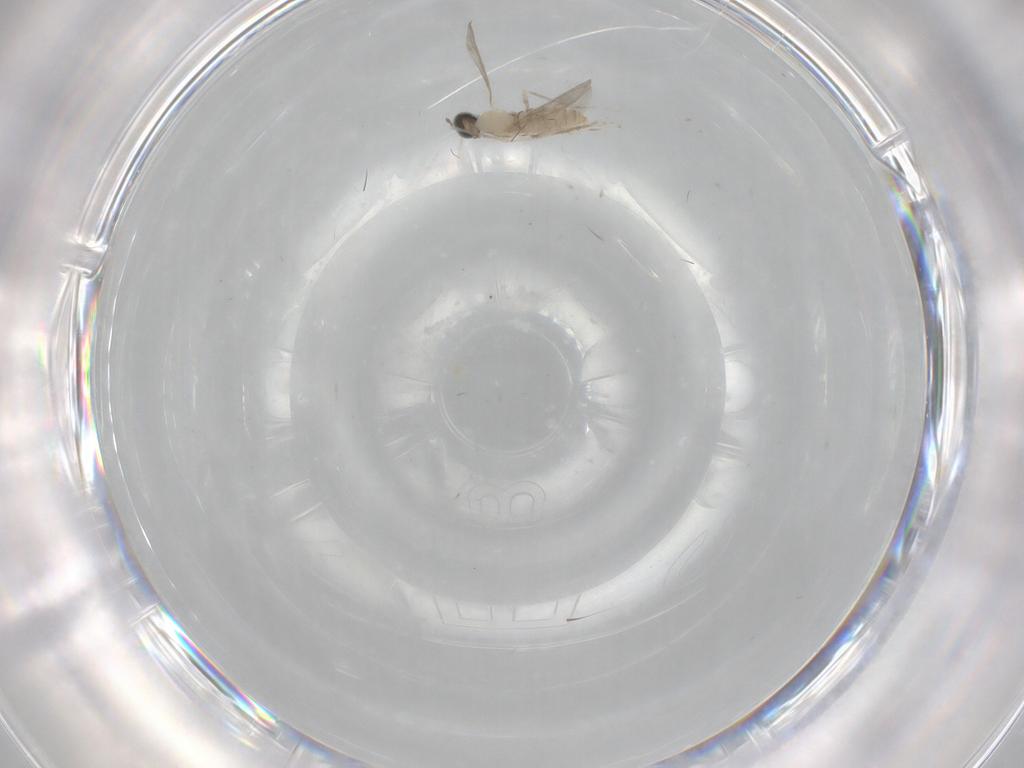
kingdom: Animalia
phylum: Arthropoda
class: Insecta
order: Diptera
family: Cecidomyiidae
